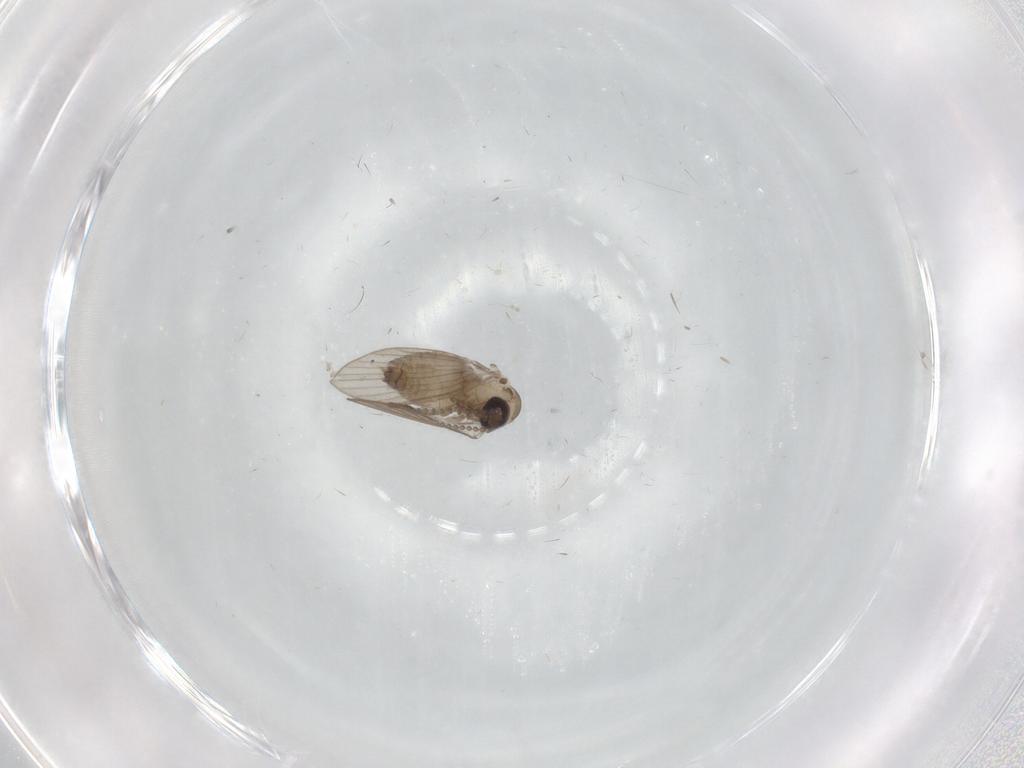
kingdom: Animalia
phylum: Arthropoda
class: Insecta
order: Diptera
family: Psychodidae
